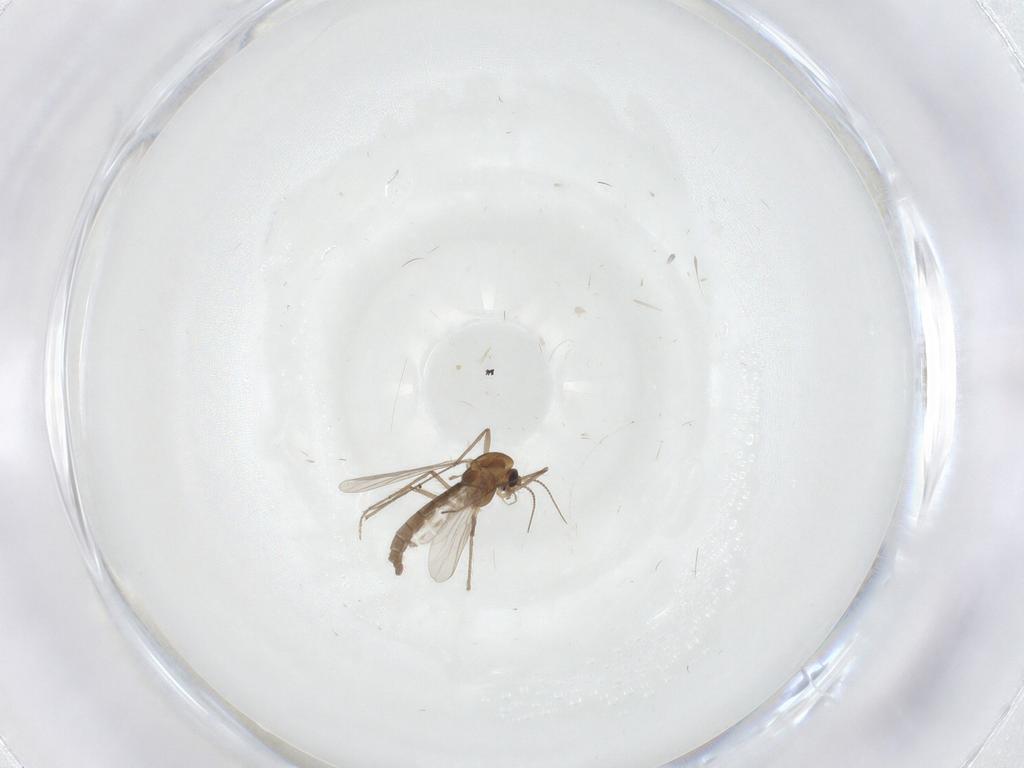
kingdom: Animalia
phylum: Arthropoda
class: Insecta
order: Diptera
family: Chironomidae
